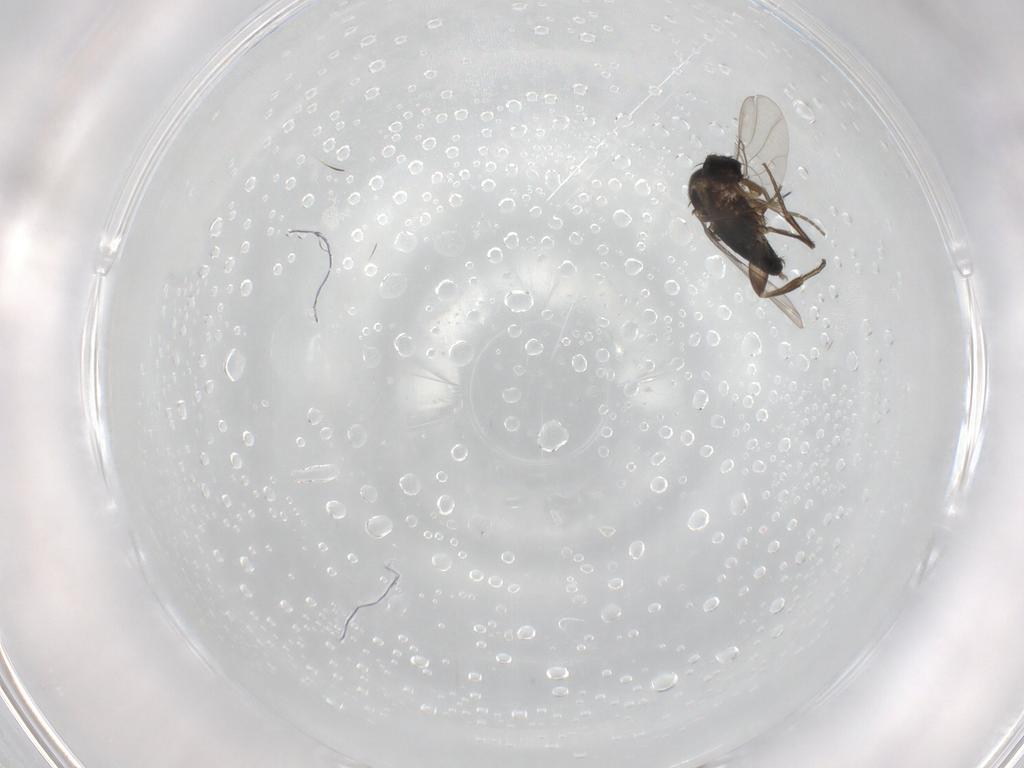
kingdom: Animalia
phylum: Arthropoda
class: Insecta
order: Diptera
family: Phoridae
